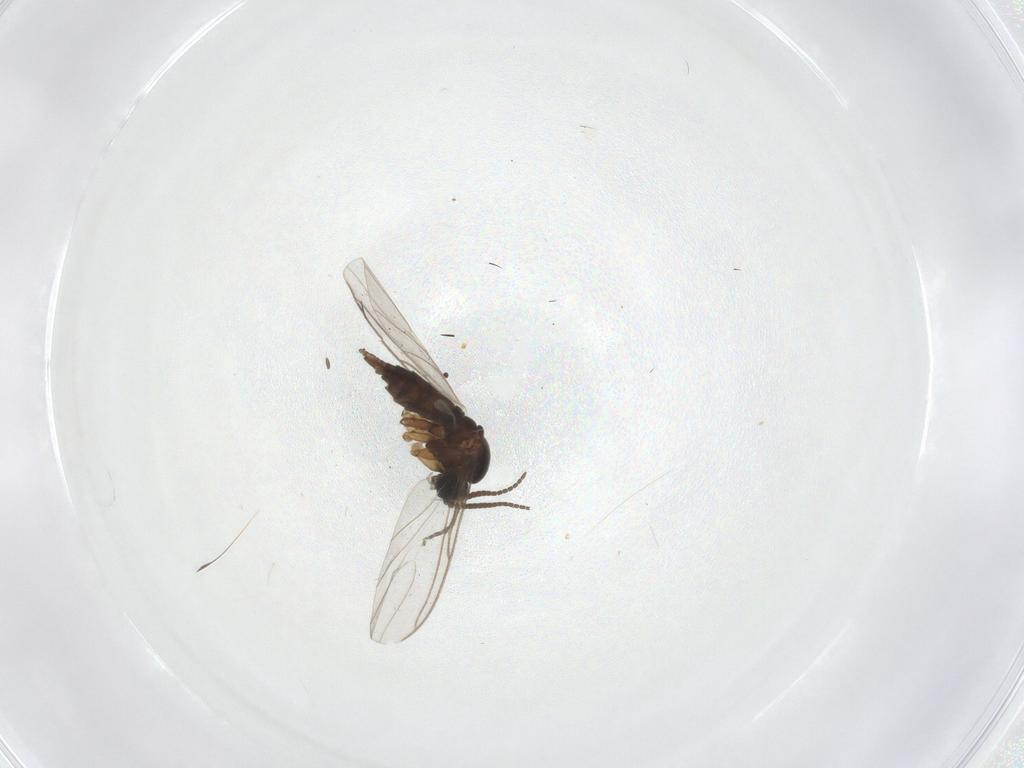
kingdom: Animalia
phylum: Arthropoda
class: Insecta
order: Diptera
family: Sciaridae
